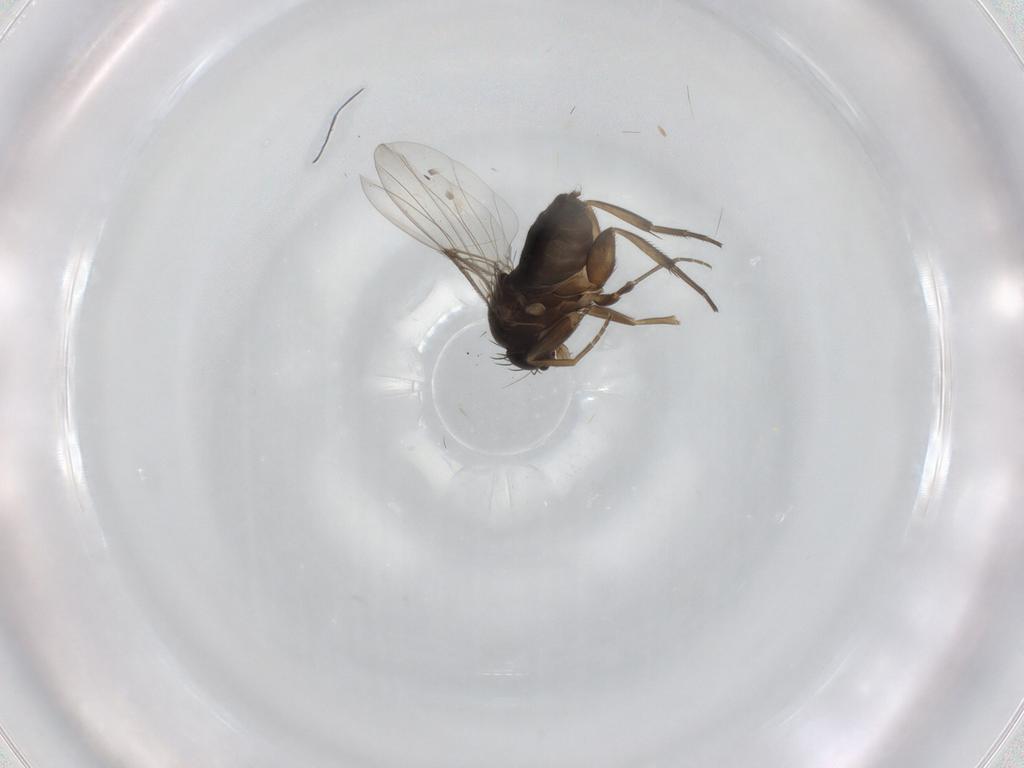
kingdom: Animalia
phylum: Arthropoda
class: Insecta
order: Diptera
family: Phoridae
